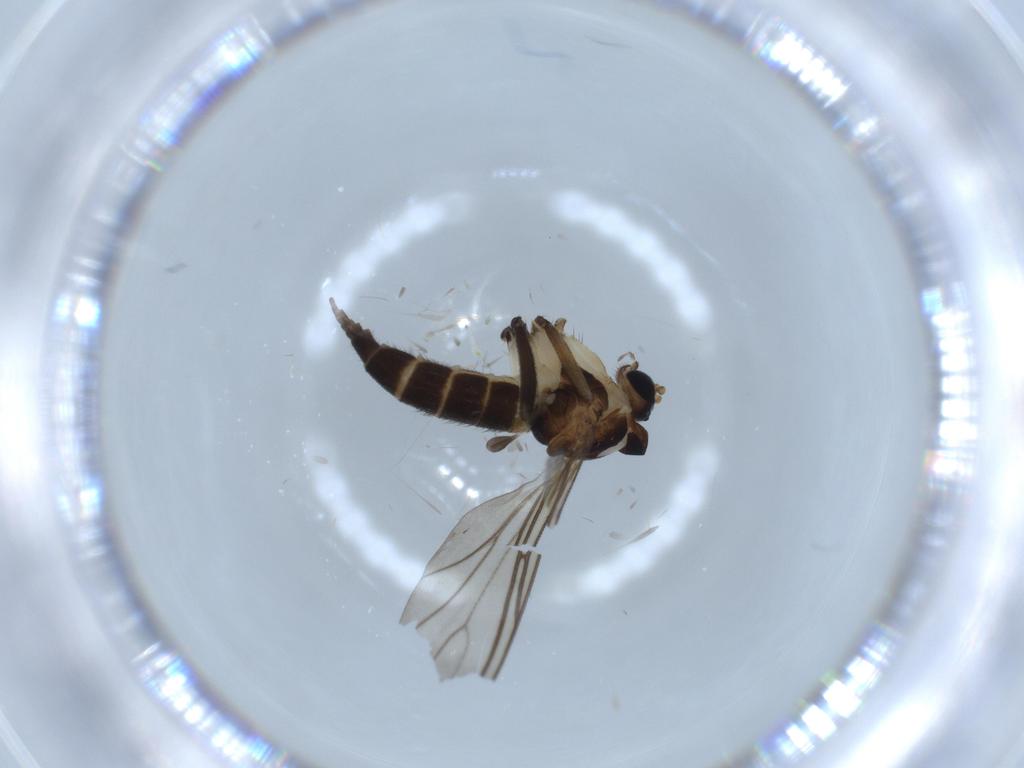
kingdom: Animalia
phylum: Arthropoda
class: Insecta
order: Diptera
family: Sciaridae
